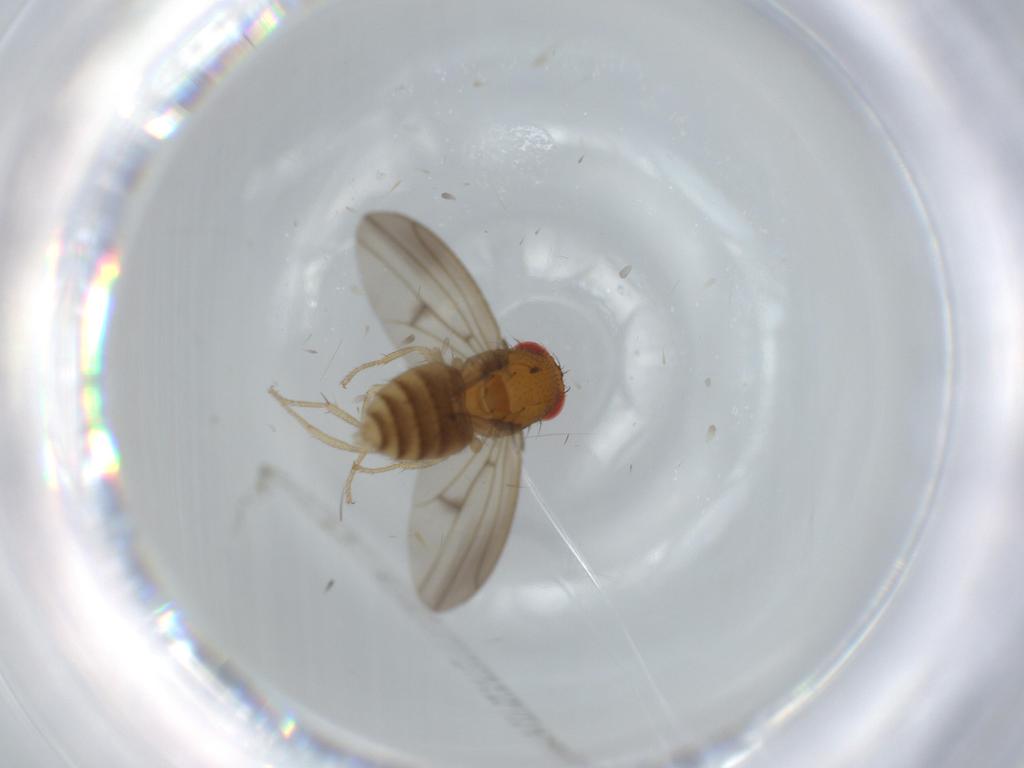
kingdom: Animalia
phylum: Arthropoda
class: Insecta
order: Diptera
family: Drosophilidae
